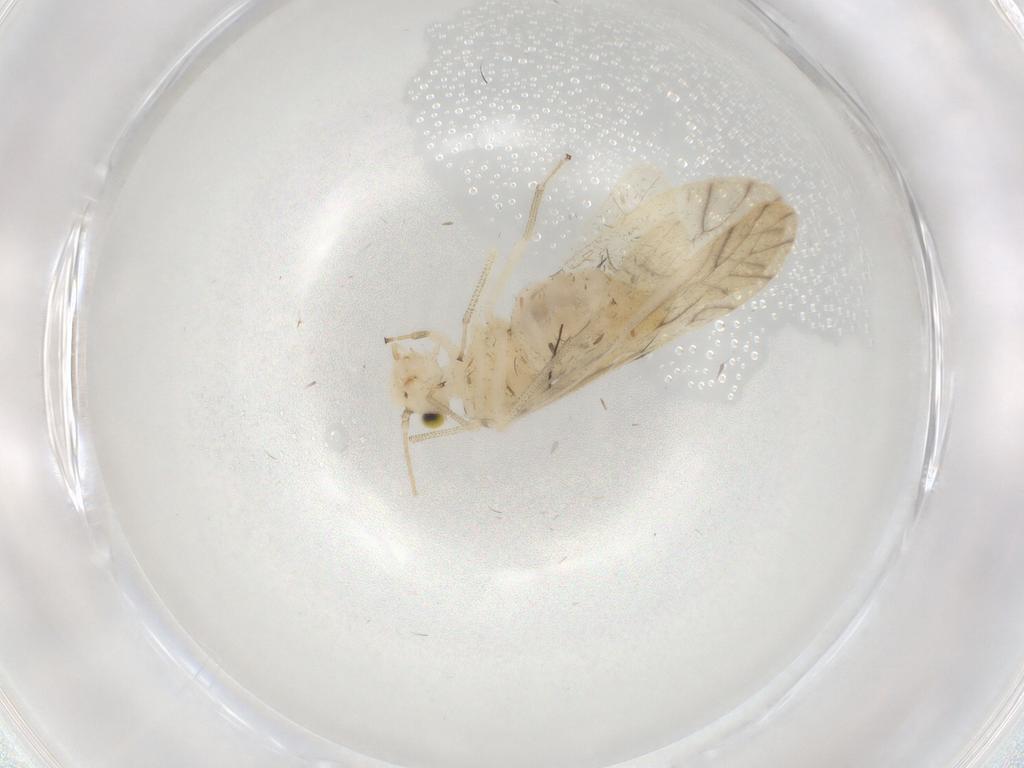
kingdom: Animalia
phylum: Arthropoda
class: Insecta
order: Psocodea
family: Lachesillidae
